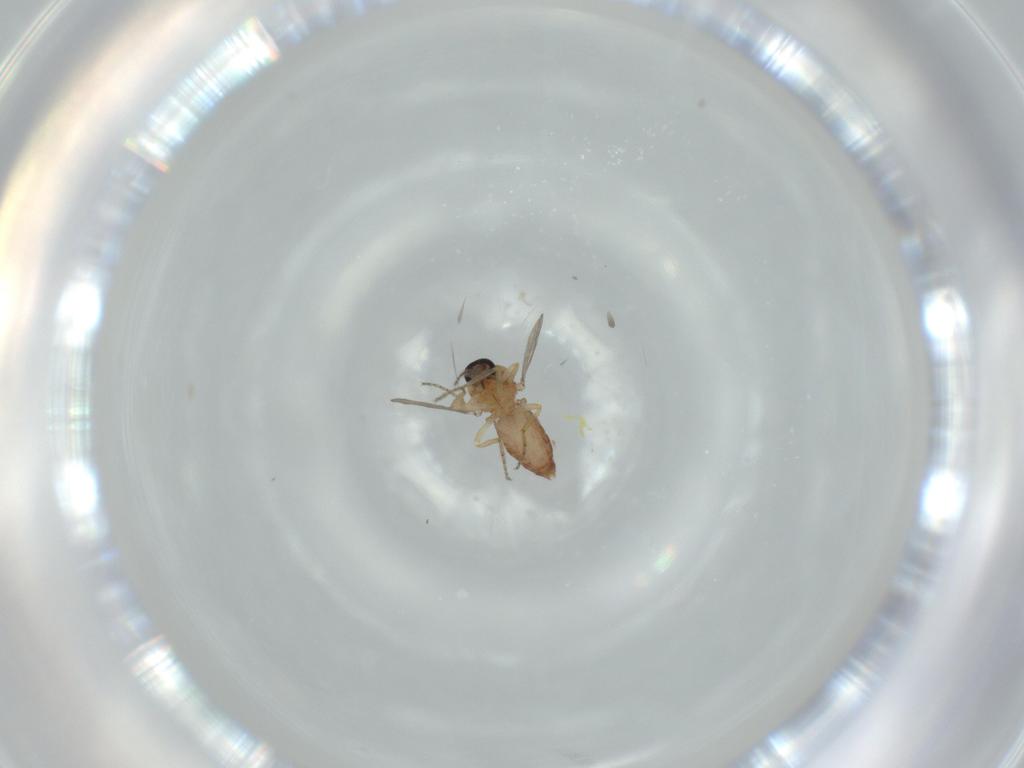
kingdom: Animalia
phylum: Arthropoda
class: Insecta
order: Diptera
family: Ceratopogonidae
